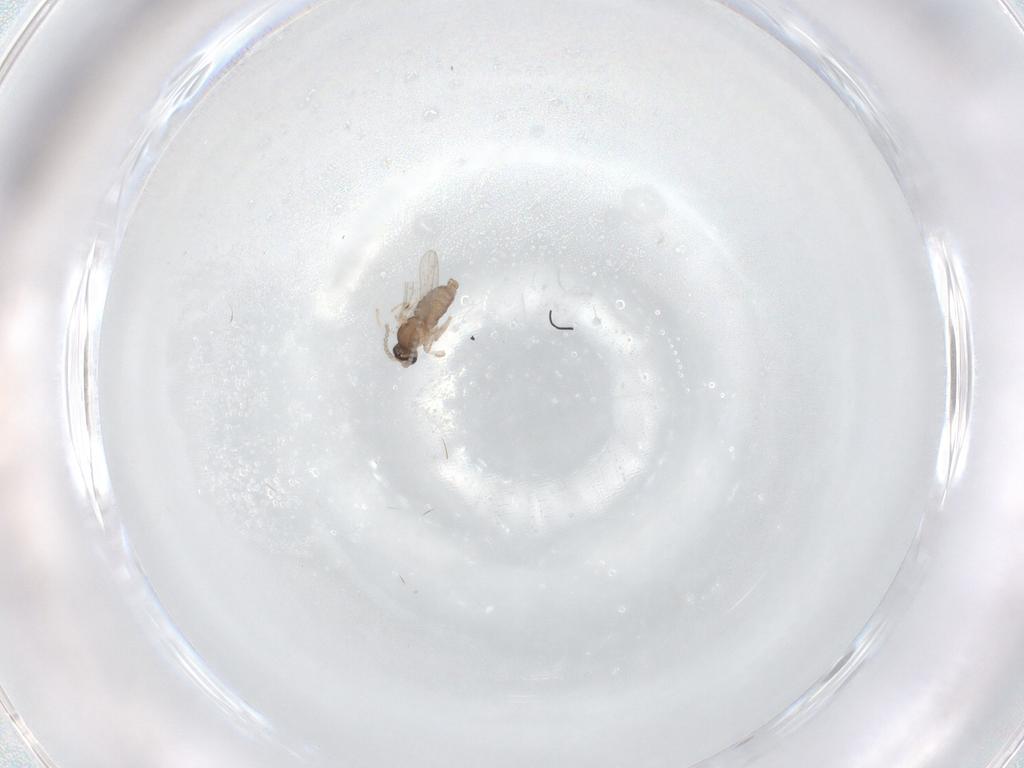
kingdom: Animalia
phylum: Arthropoda
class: Insecta
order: Diptera
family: Cecidomyiidae
